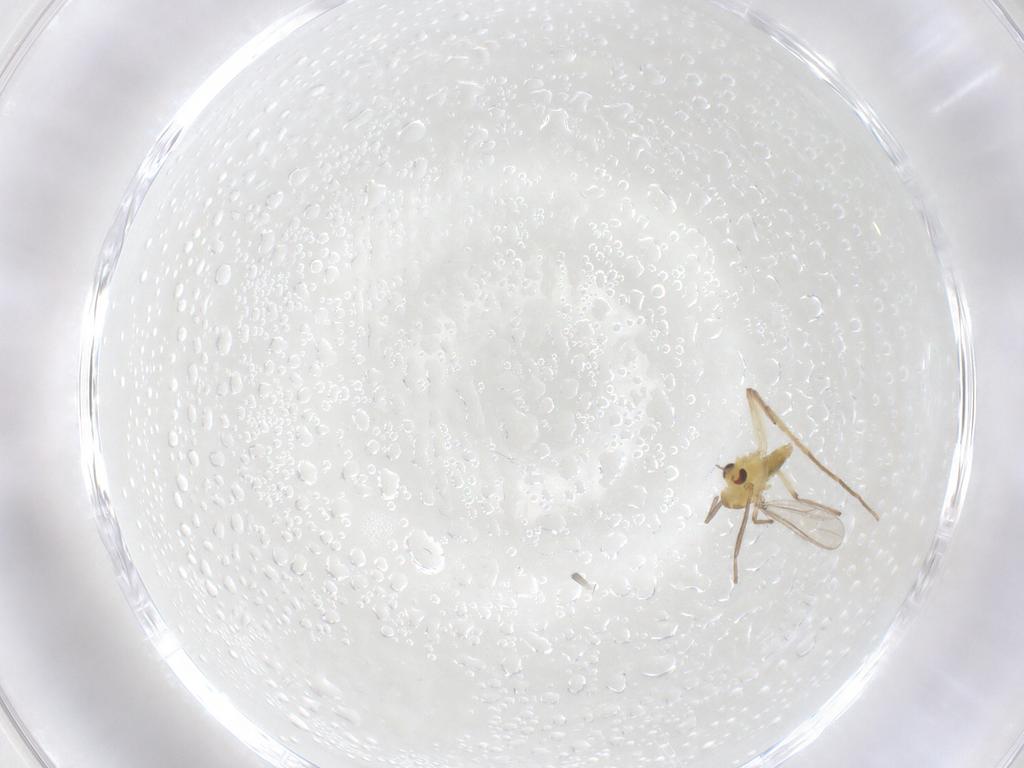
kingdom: Animalia
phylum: Arthropoda
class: Insecta
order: Diptera
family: Chironomidae
